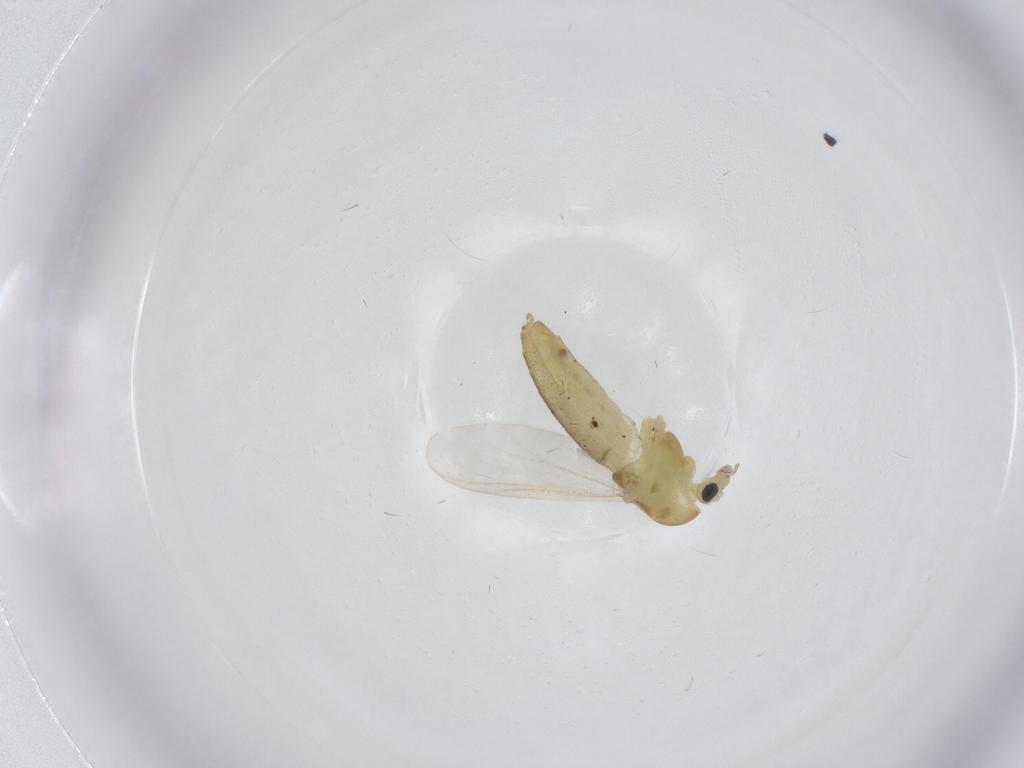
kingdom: Animalia
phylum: Arthropoda
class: Insecta
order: Diptera
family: Chironomidae
